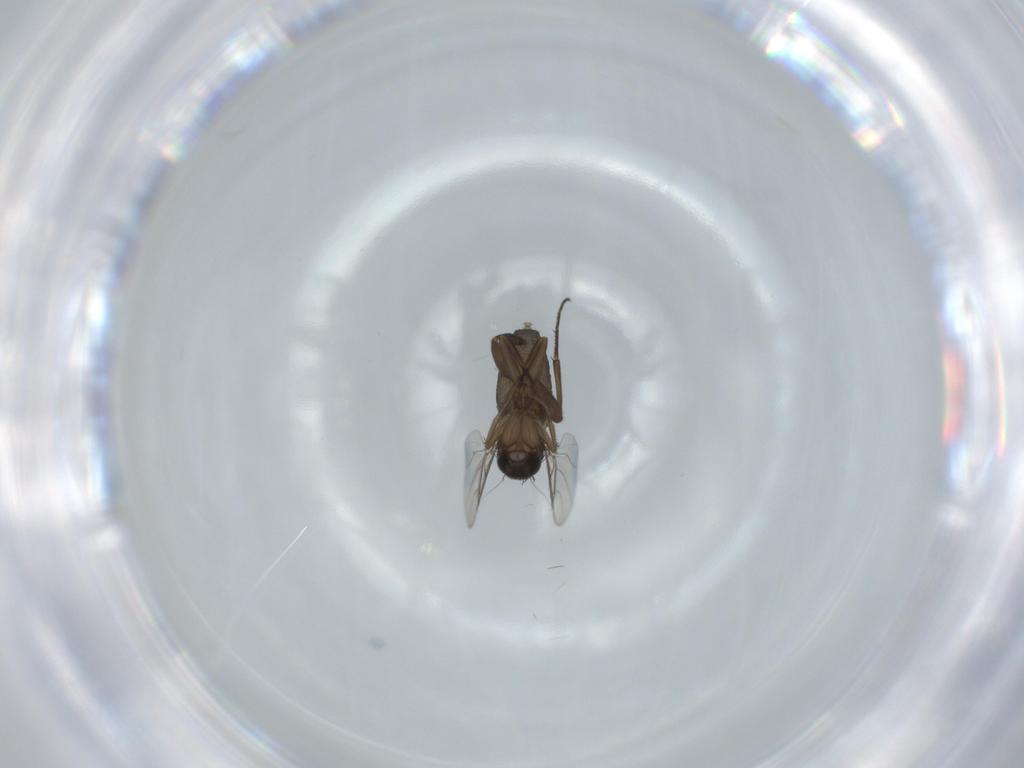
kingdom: Animalia
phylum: Arthropoda
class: Insecta
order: Diptera
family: Phoridae
